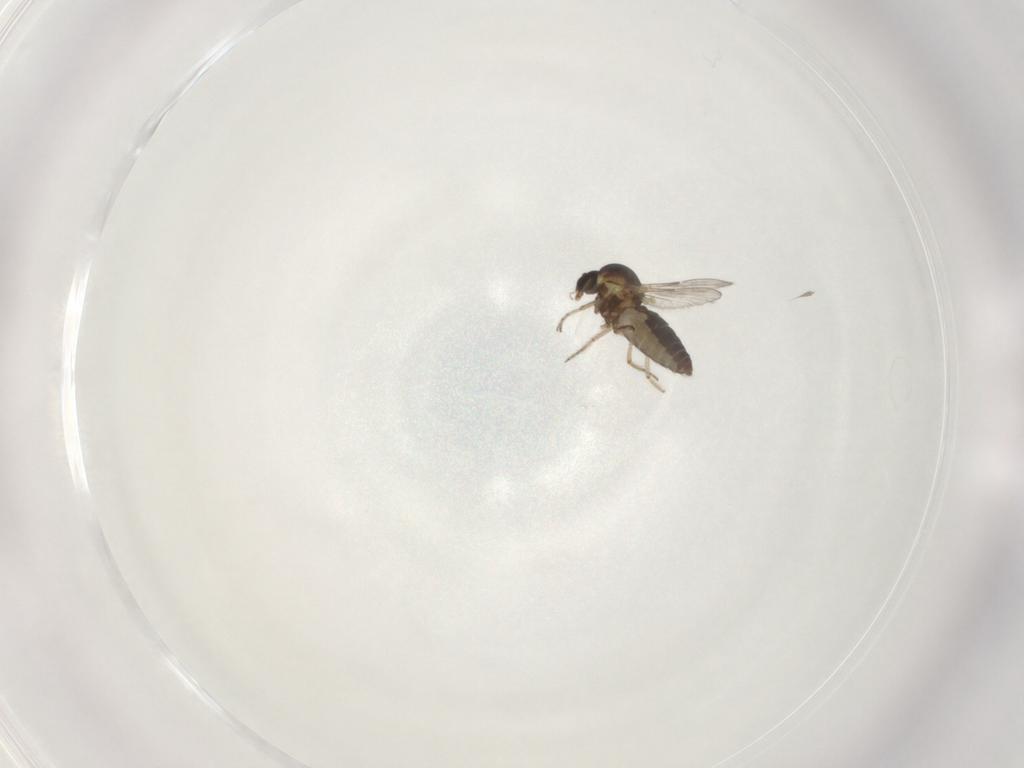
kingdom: Animalia
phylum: Arthropoda
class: Insecta
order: Diptera
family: Ceratopogonidae
